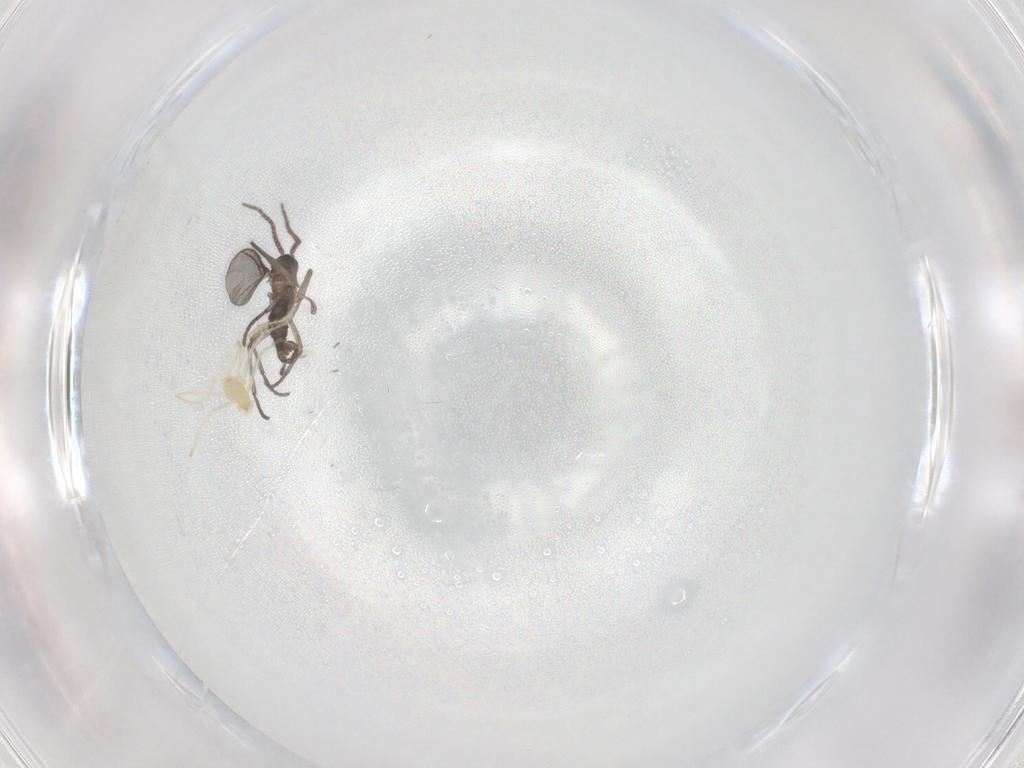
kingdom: Animalia
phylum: Arthropoda
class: Insecta
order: Diptera
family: Sciaridae
